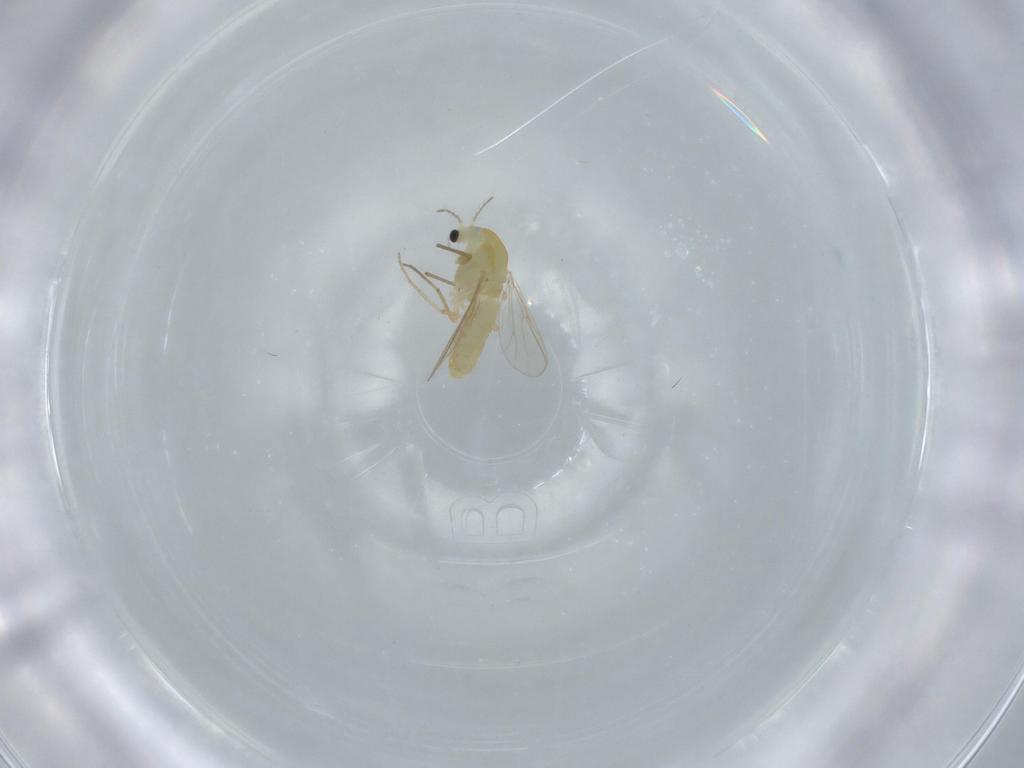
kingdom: Animalia
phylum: Arthropoda
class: Insecta
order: Diptera
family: Chironomidae
